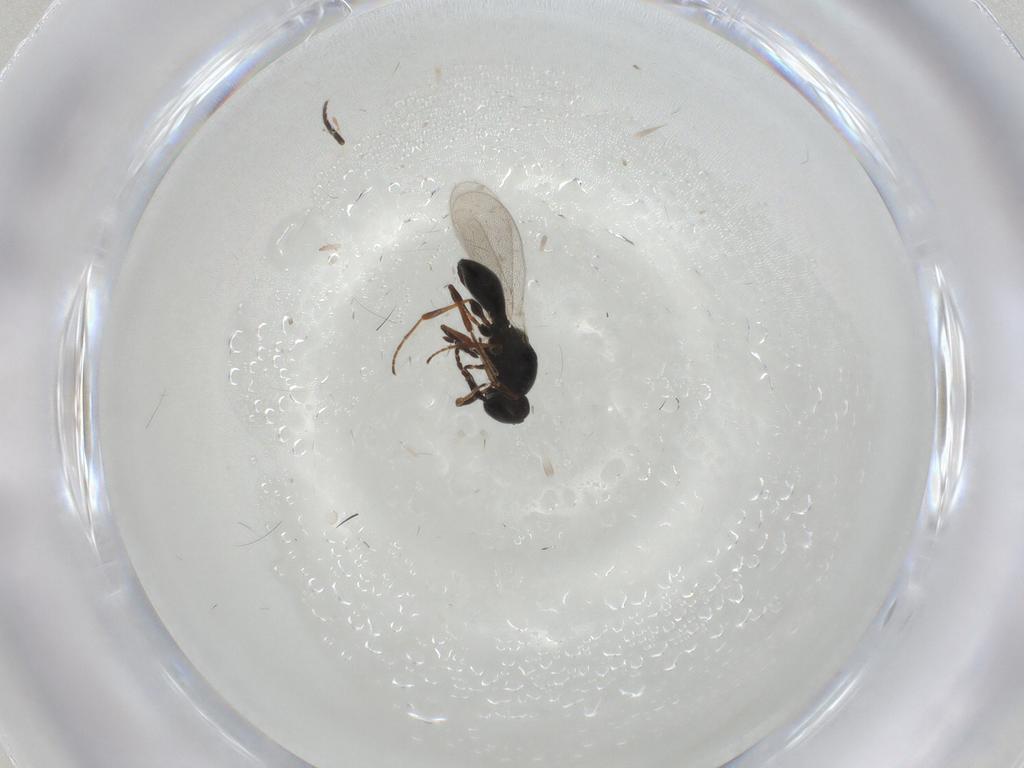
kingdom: Animalia
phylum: Arthropoda
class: Insecta
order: Hymenoptera
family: Platygastridae
